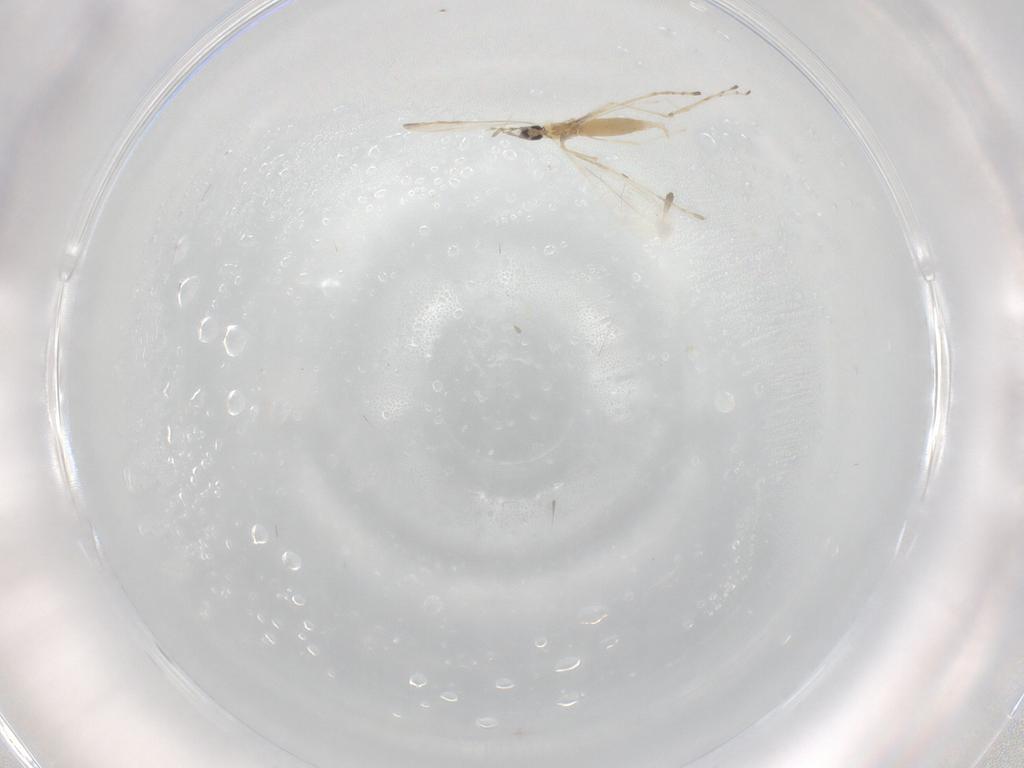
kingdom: Animalia
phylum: Arthropoda
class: Insecta
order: Diptera
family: Cecidomyiidae
